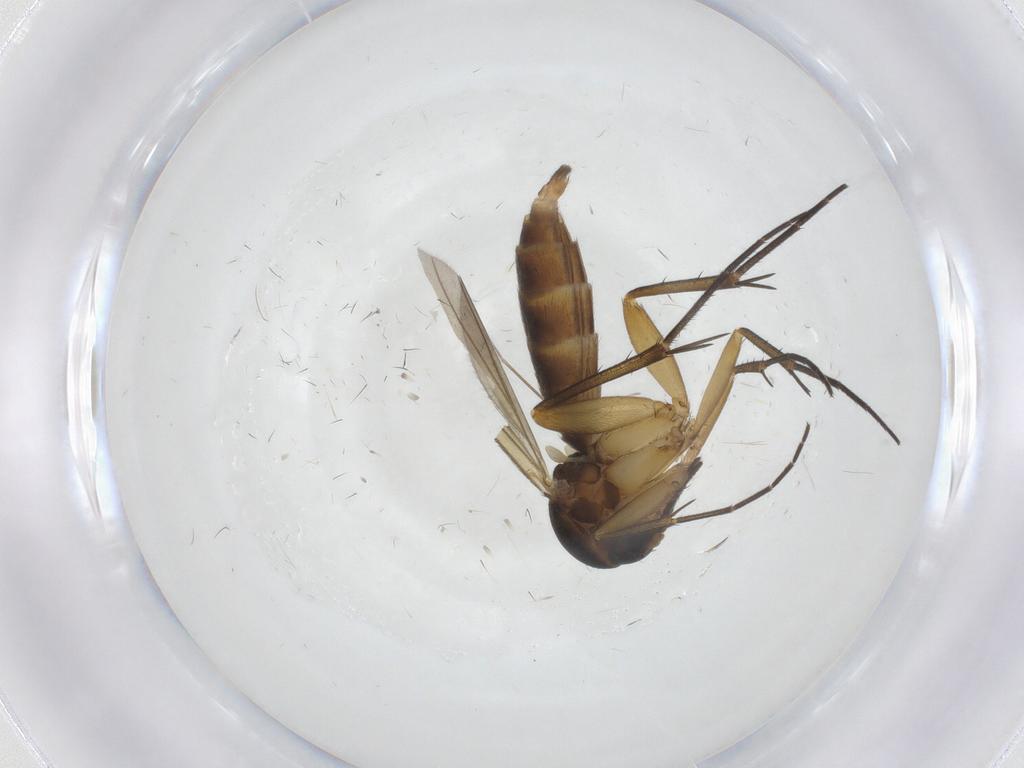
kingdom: Animalia
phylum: Arthropoda
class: Insecta
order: Diptera
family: Mycetophilidae
